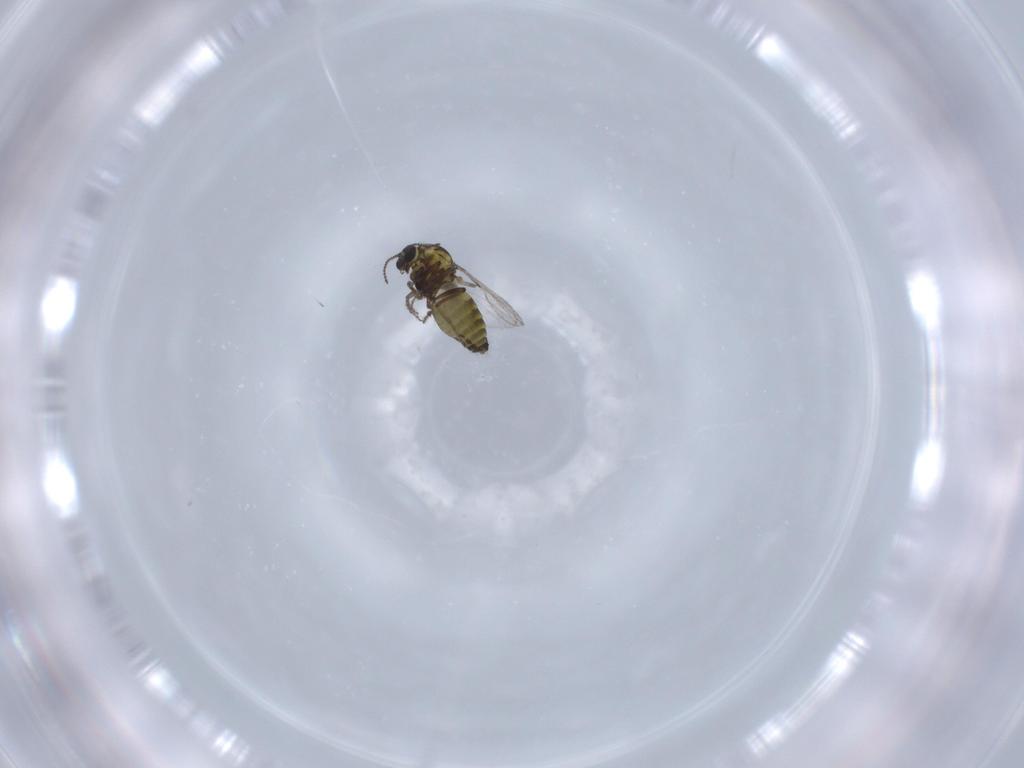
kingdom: Animalia
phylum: Arthropoda
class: Insecta
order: Diptera
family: Ceratopogonidae
